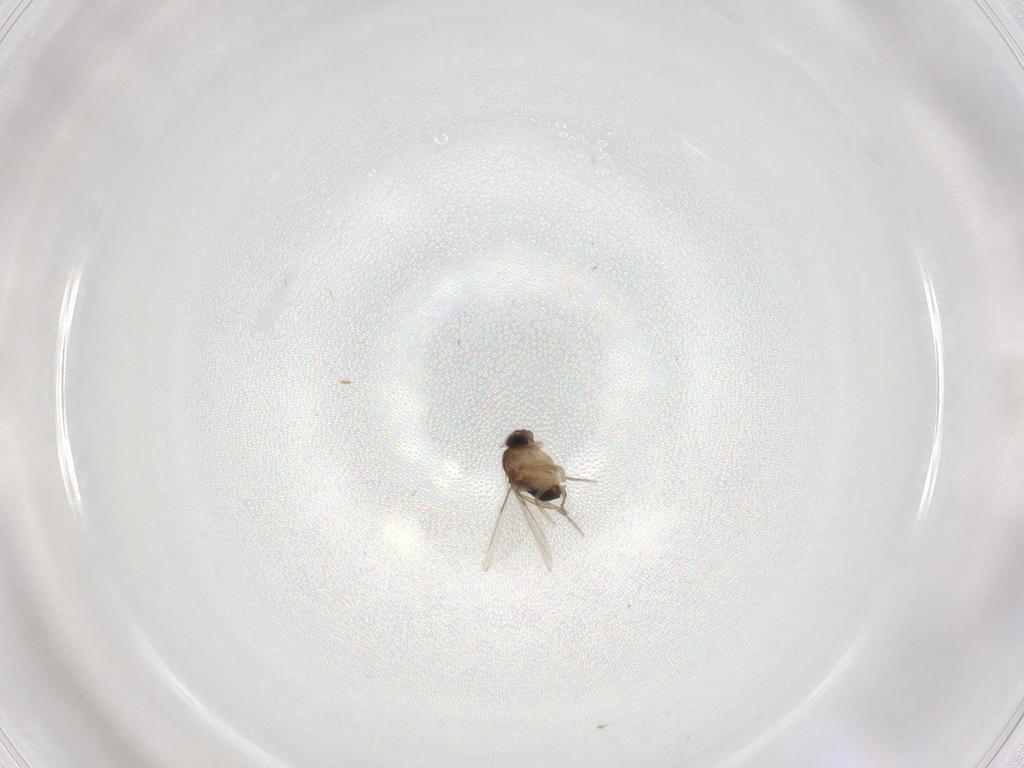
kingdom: Animalia
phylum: Arthropoda
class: Insecta
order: Diptera
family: Phoridae
